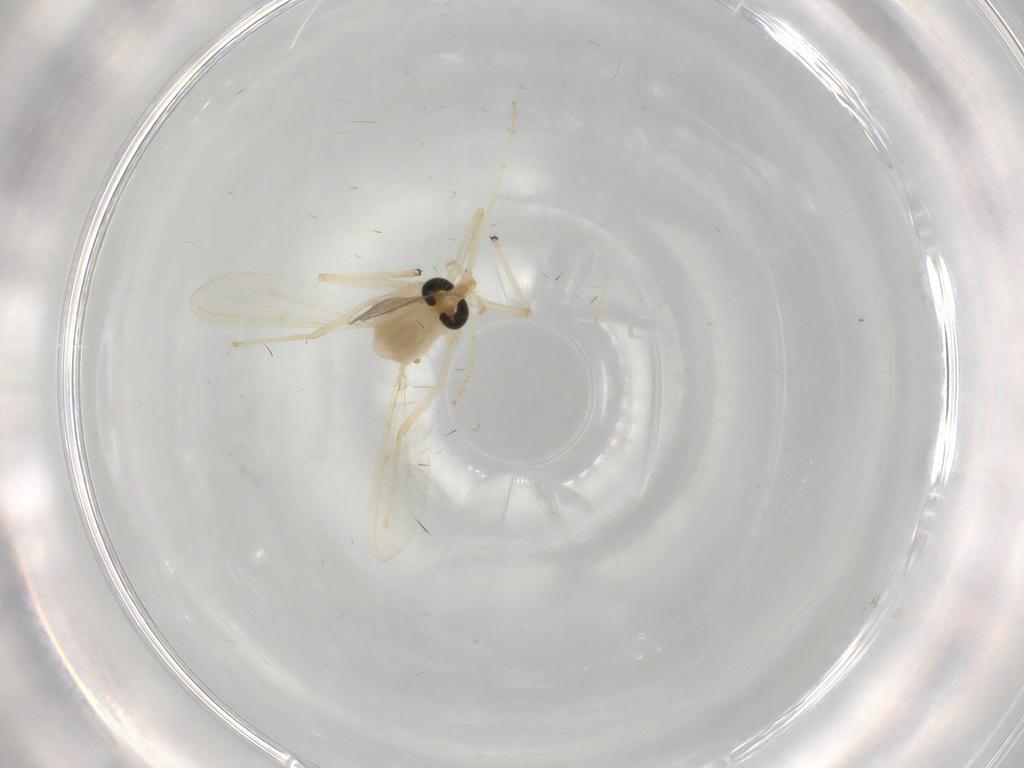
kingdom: Animalia
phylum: Arthropoda
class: Insecta
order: Diptera
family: Chironomidae
